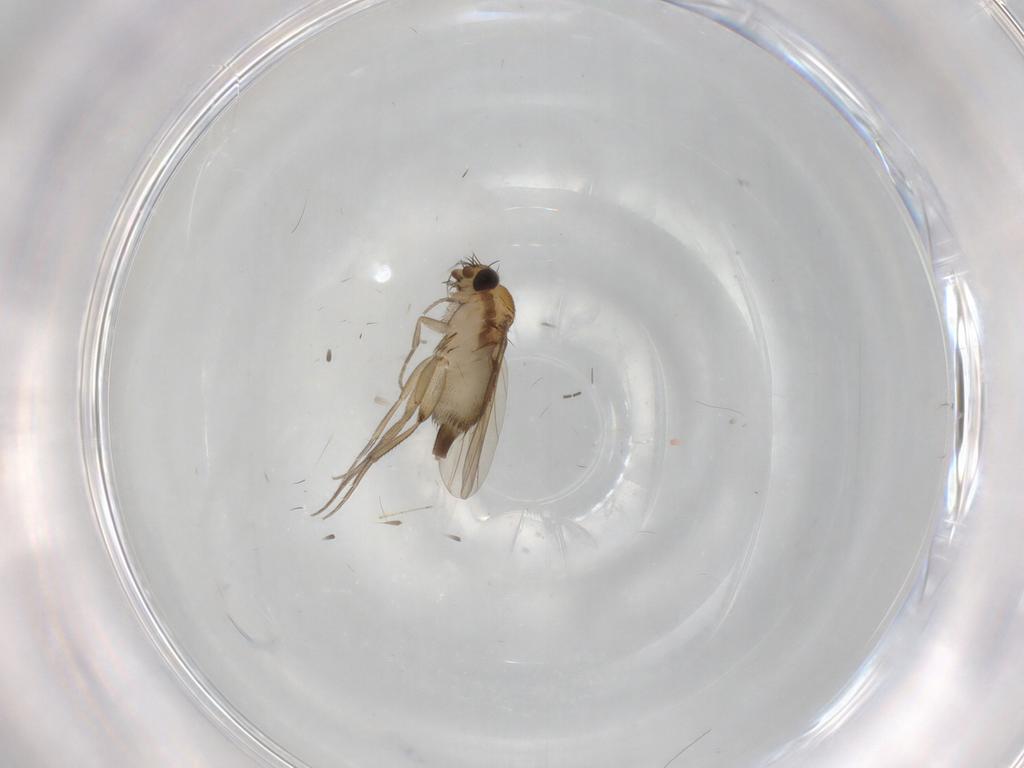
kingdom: Animalia
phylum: Arthropoda
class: Insecta
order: Diptera
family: Phoridae
